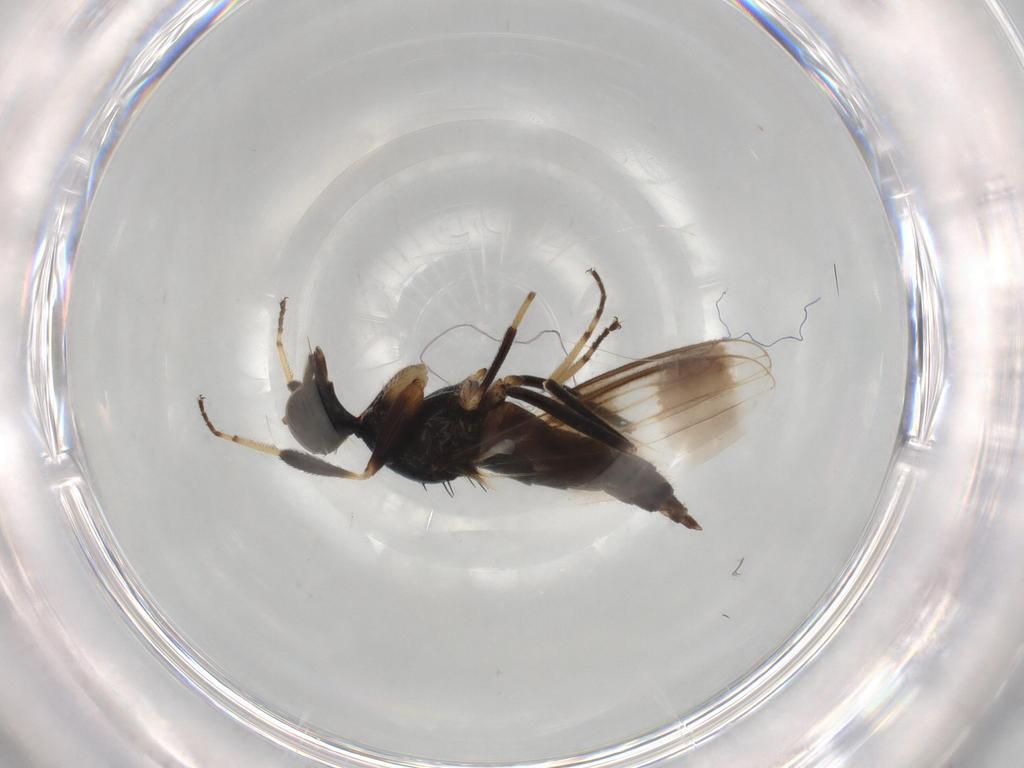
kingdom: Animalia
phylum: Arthropoda
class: Insecta
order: Diptera
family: Hybotidae
